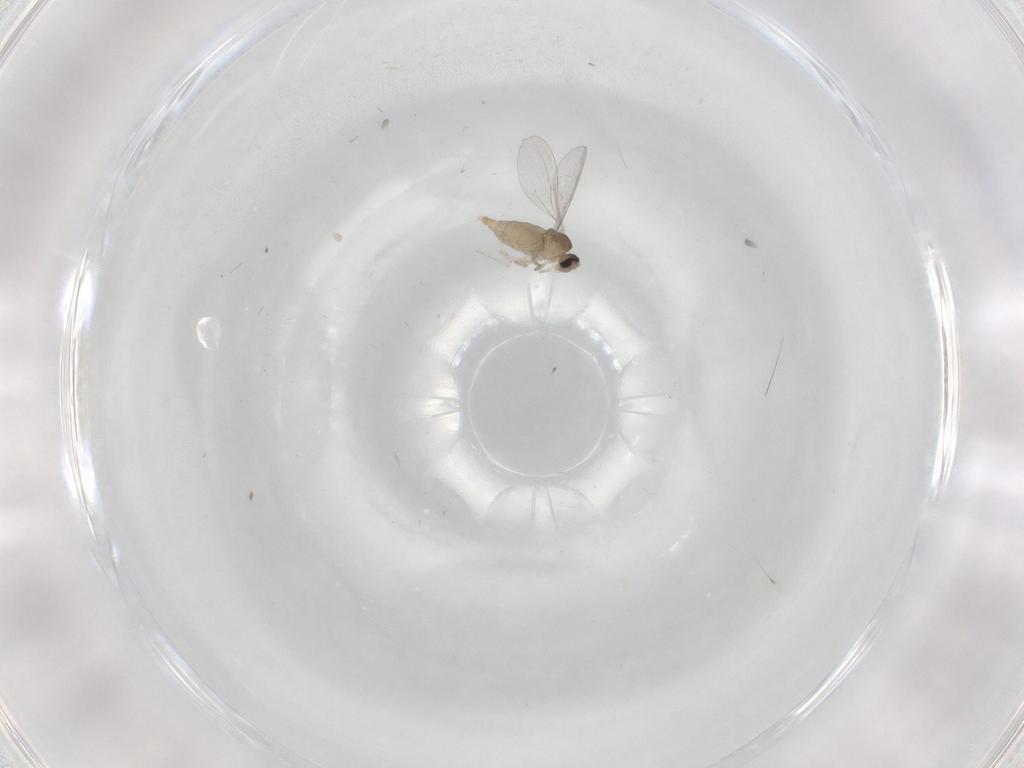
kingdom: Animalia
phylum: Arthropoda
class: Insecta
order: Diptera
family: Cecidomyiidae
